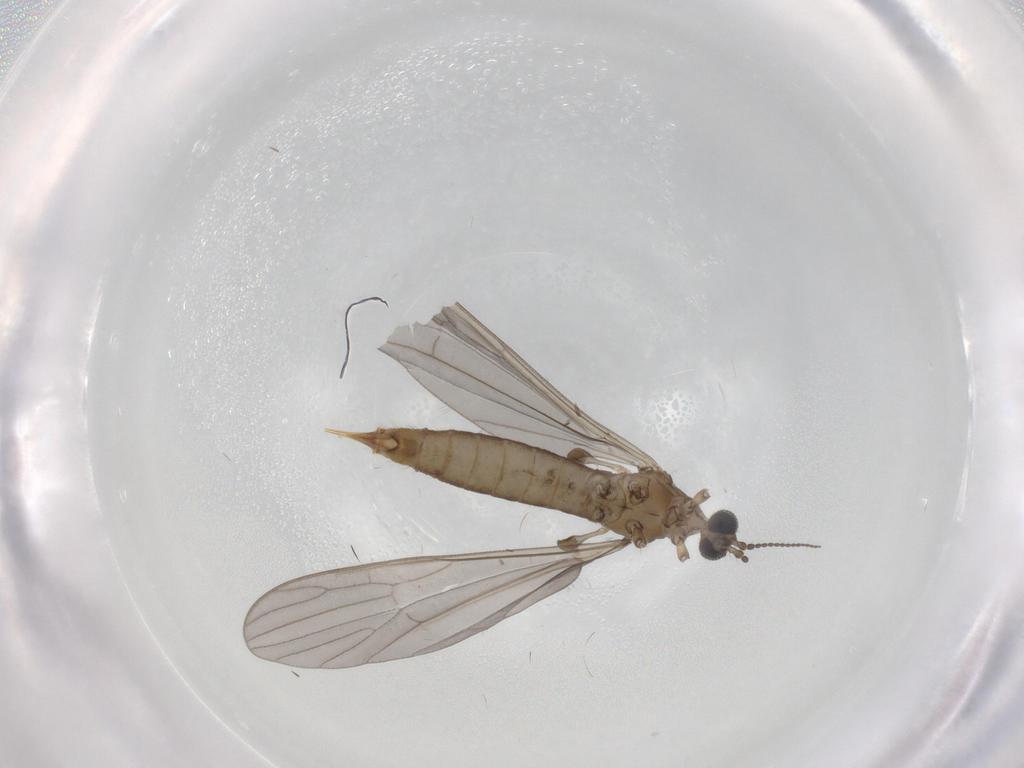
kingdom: Animalia
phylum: Arthropoda
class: Insecta
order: Diptera
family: Limoniidae
